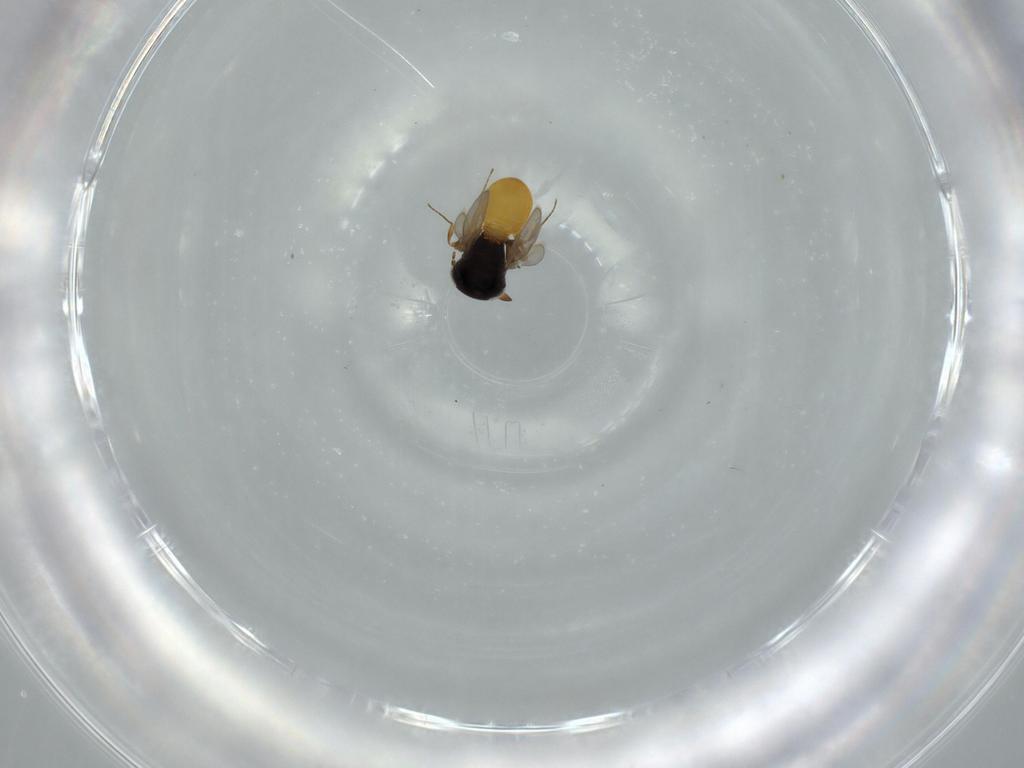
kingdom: Animalia
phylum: Arthropoda
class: Insecta
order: Hymenoptera
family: Scelionidae
